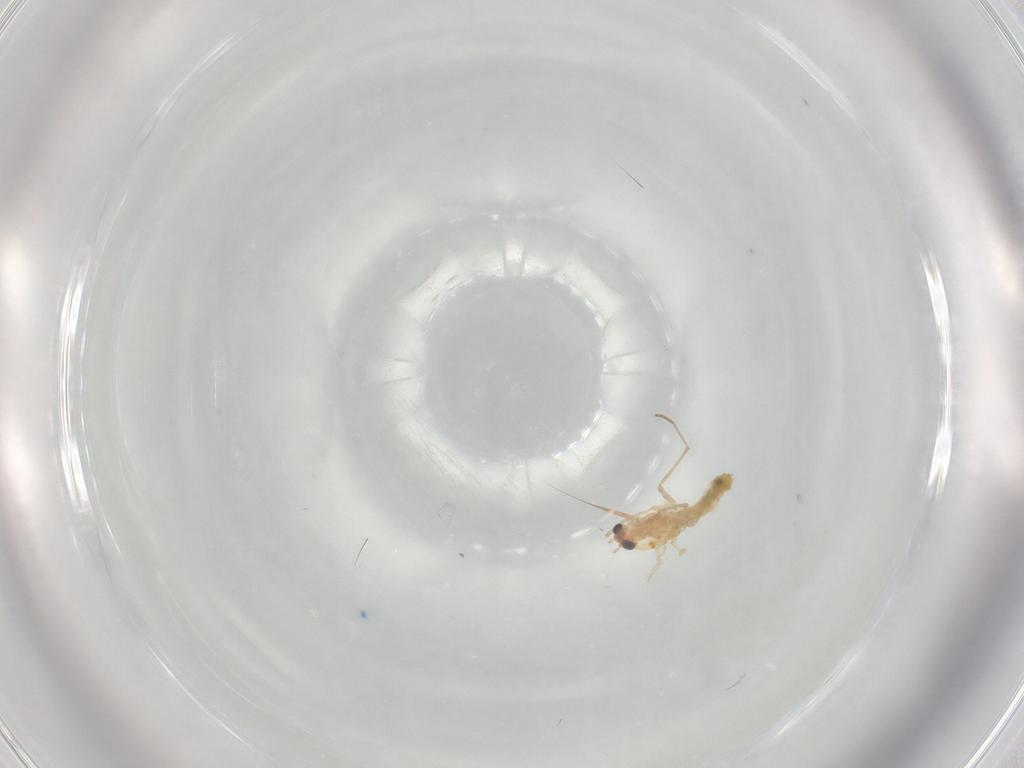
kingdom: Animalia
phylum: Arthropoda
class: Insecta
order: Diptera
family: Chironomidae
